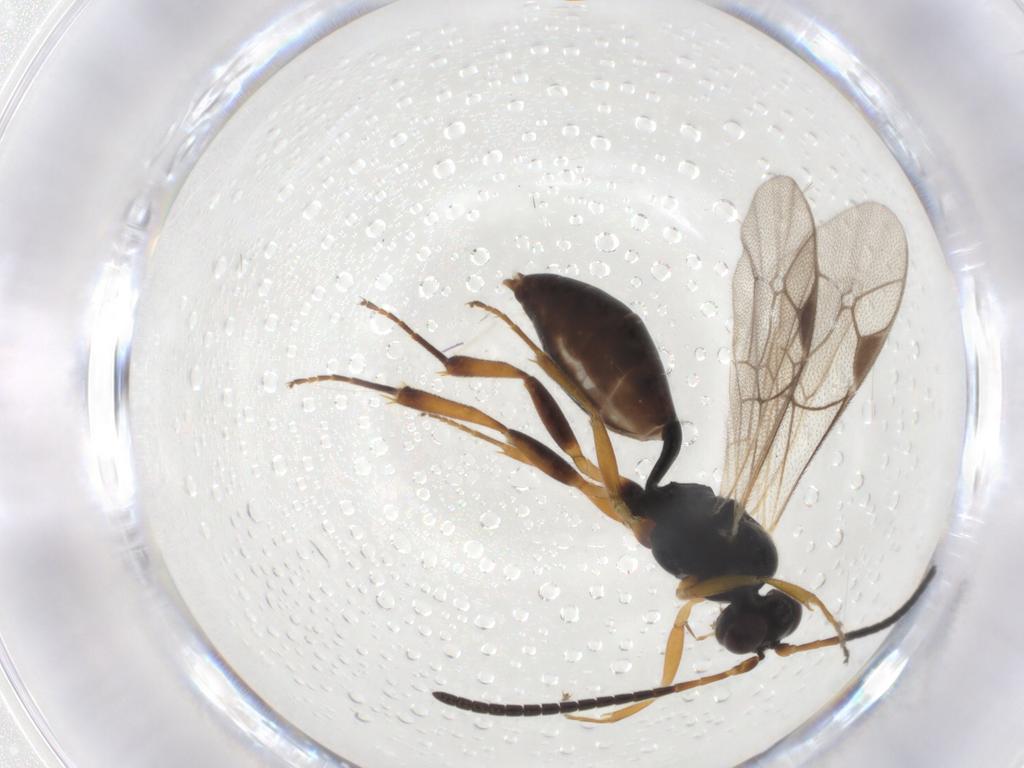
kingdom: Animalia
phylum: Arthropoda
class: Insecta
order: Hymenoptera
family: Ichneumonidae
